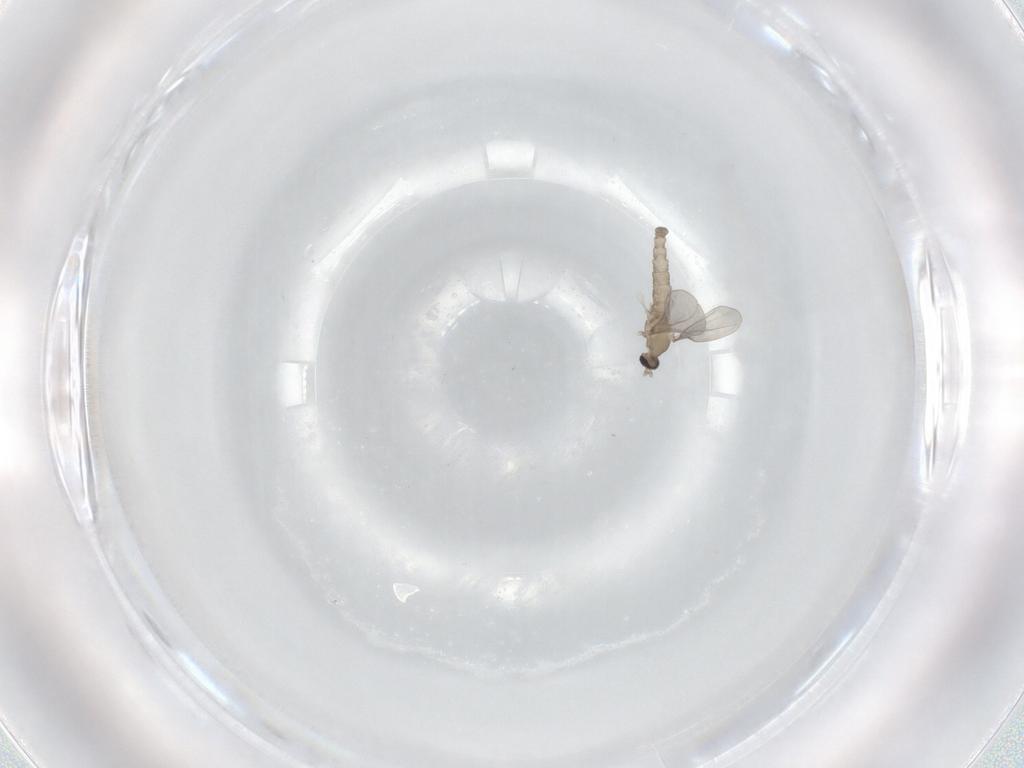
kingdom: Animalia
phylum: Arthropoda
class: Insecta
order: Diptera
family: Cecidomyiidae
